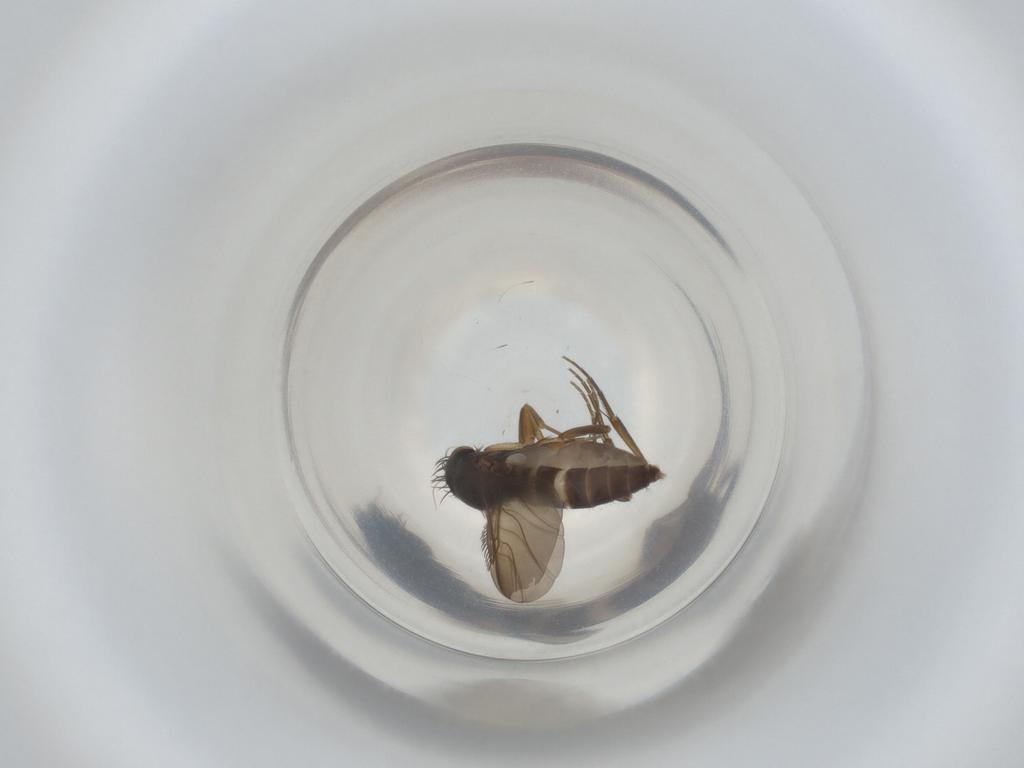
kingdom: Animalia
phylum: Arthropoda
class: Insecta
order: Diptera
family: Phoridae
